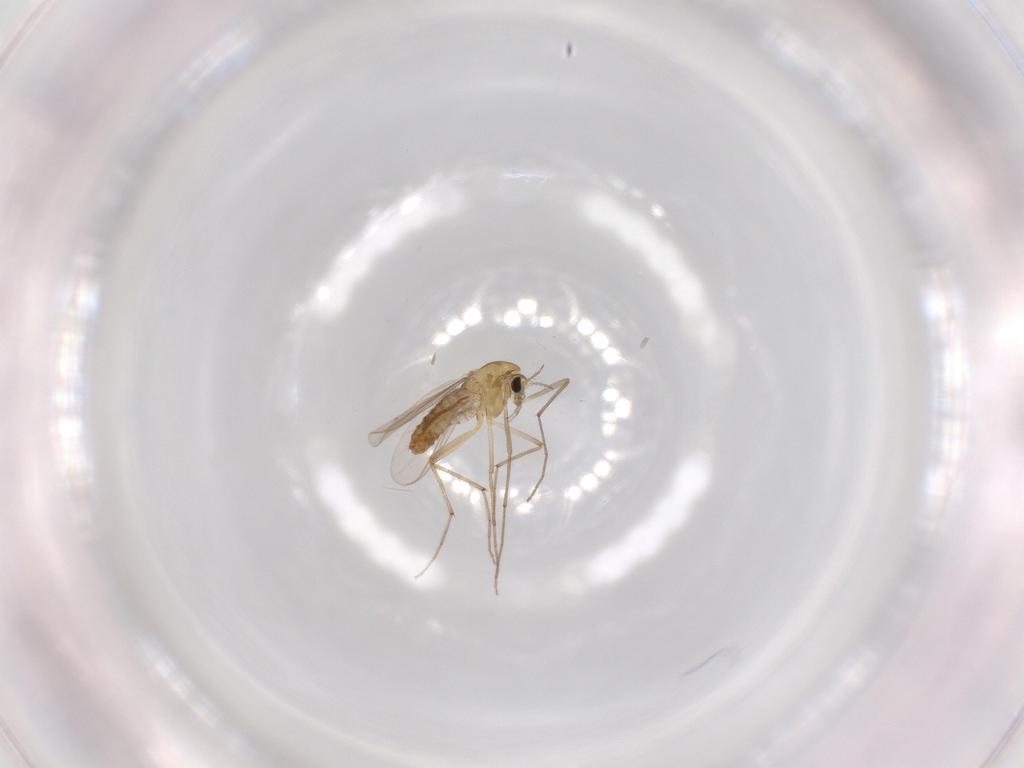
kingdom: Animalia
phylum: Arthropoda
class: Insecta
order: Diptera
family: Chironomidae
